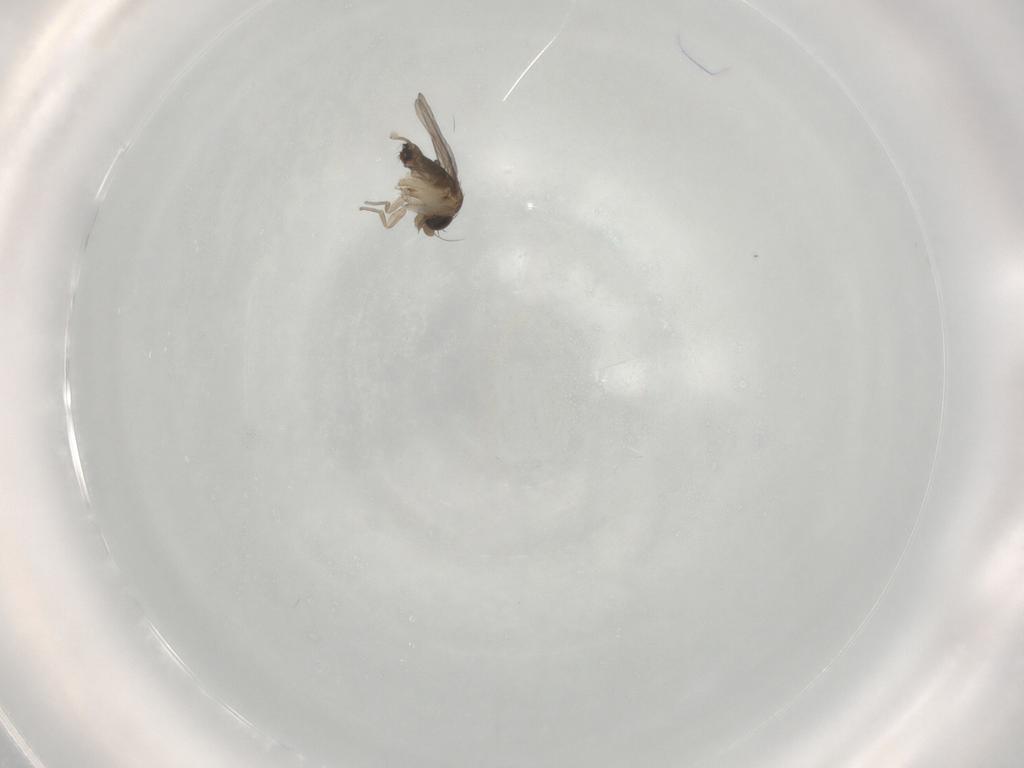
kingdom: Animalia
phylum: Arthropoda
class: Insecta
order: Diptera
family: Phoridae
